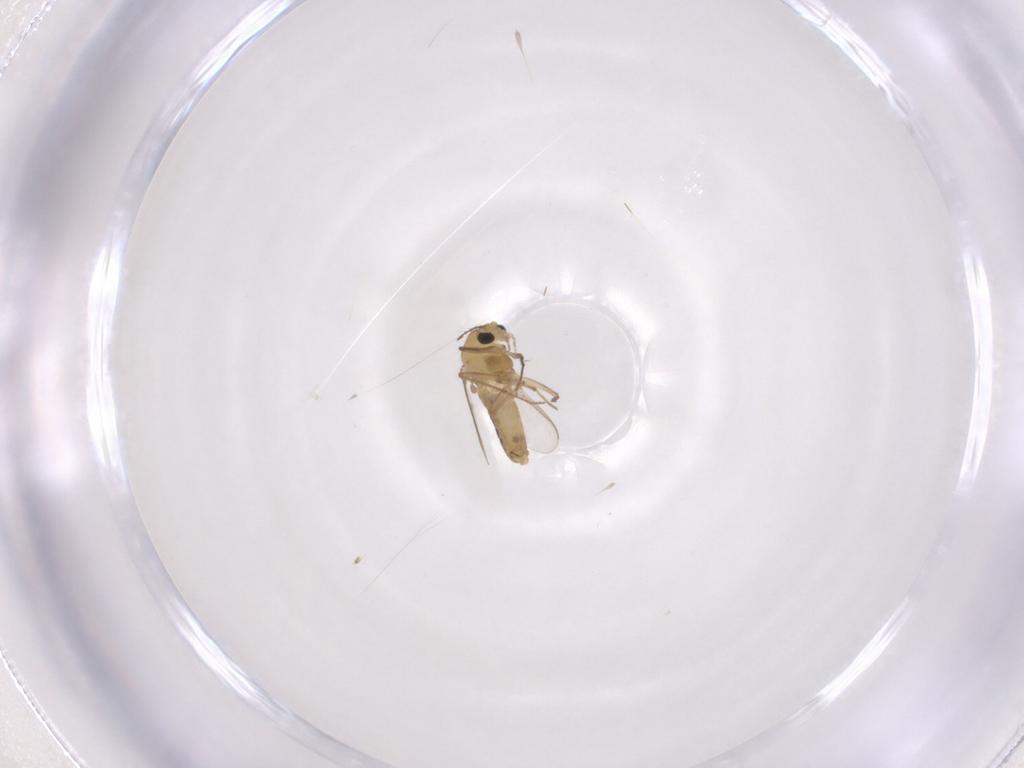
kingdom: Animalia
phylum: Arthropoda
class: Insecta
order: Diptera
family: Chironomidae
